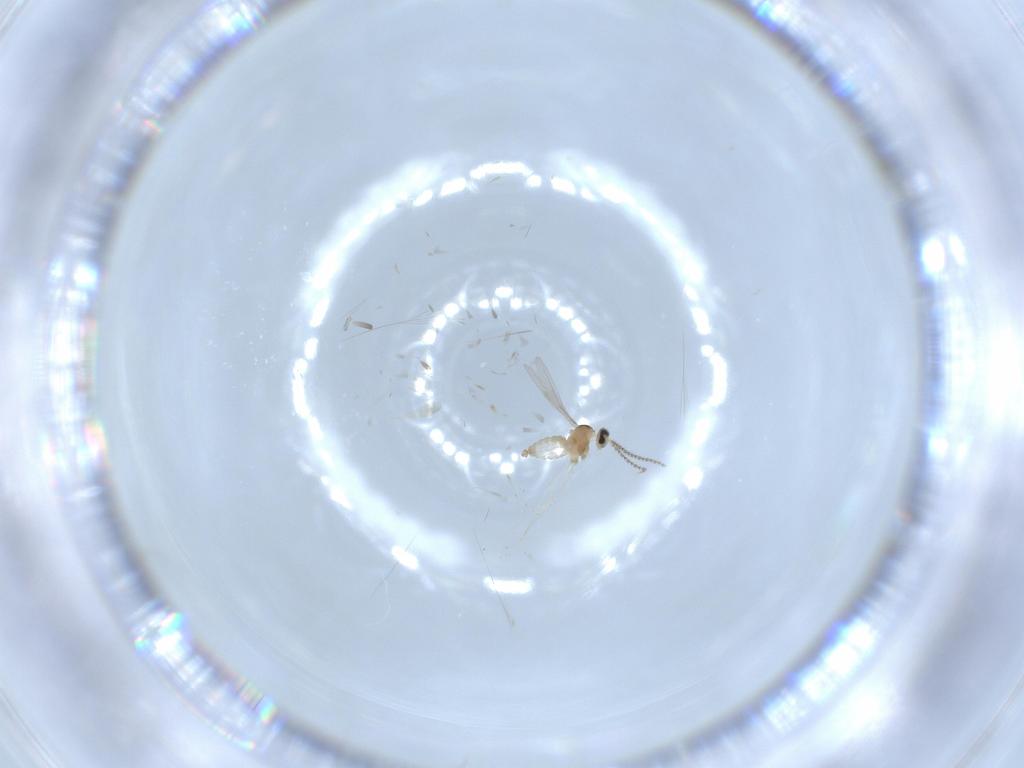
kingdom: Animalia
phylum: Arthropoda
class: Insecta
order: Diptera
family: Cecidomyiidae
